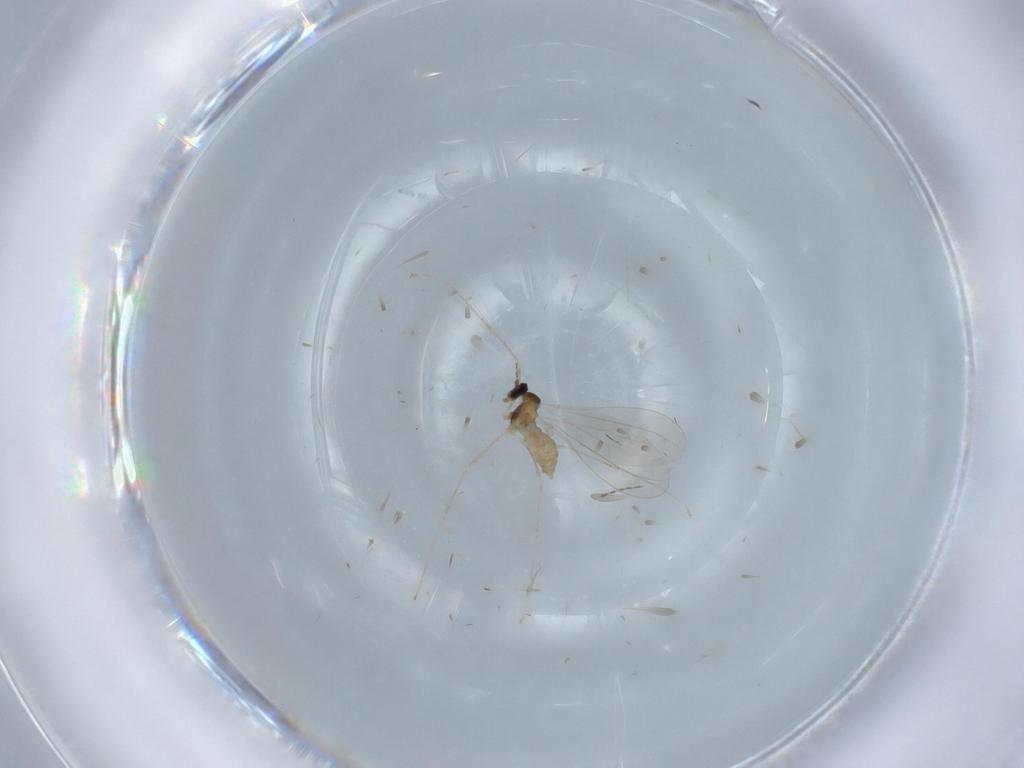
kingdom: Animalia
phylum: Arthropoda
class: Insecta
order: Diptera
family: Cecidomyiidae
